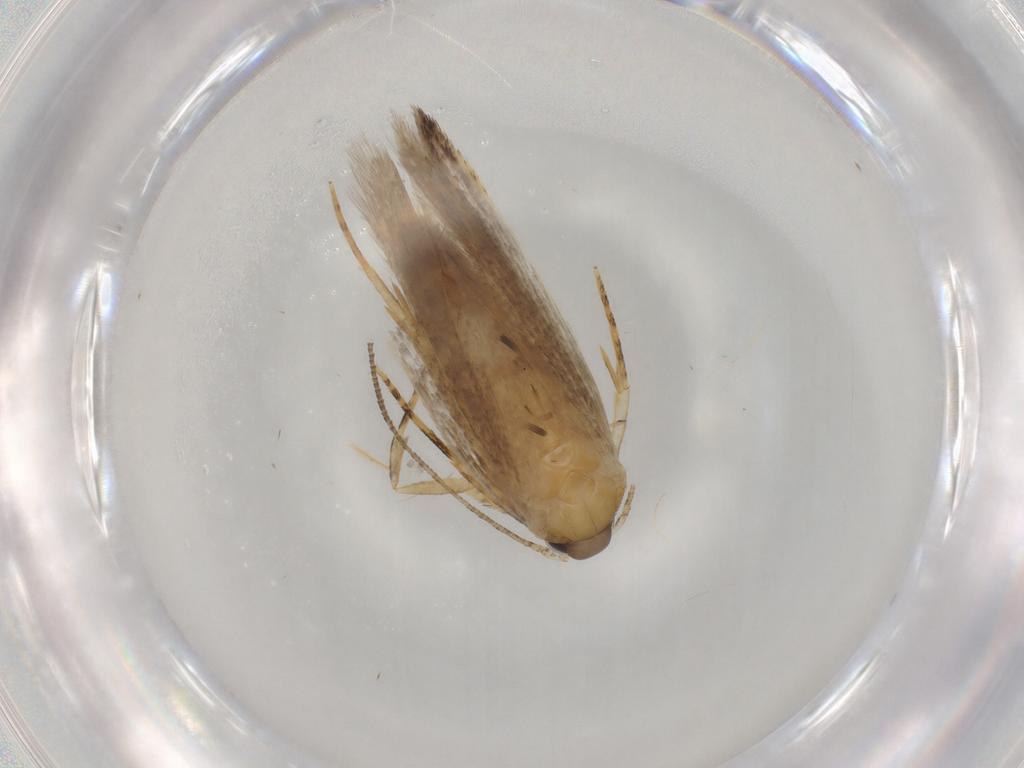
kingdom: Animalia
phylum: Arthropoda
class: Insecta
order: Lepidoptera
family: Autostichidae
